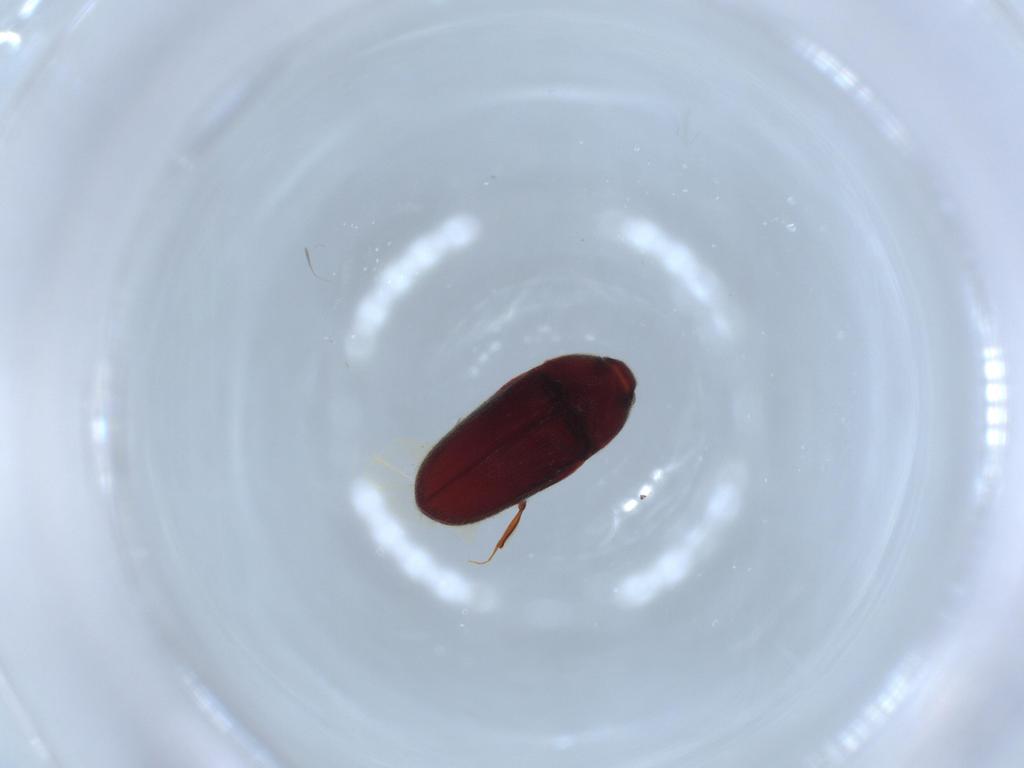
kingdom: Animalia
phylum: Arthropoda
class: Insecta
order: Coleoptera
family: Throscidae
